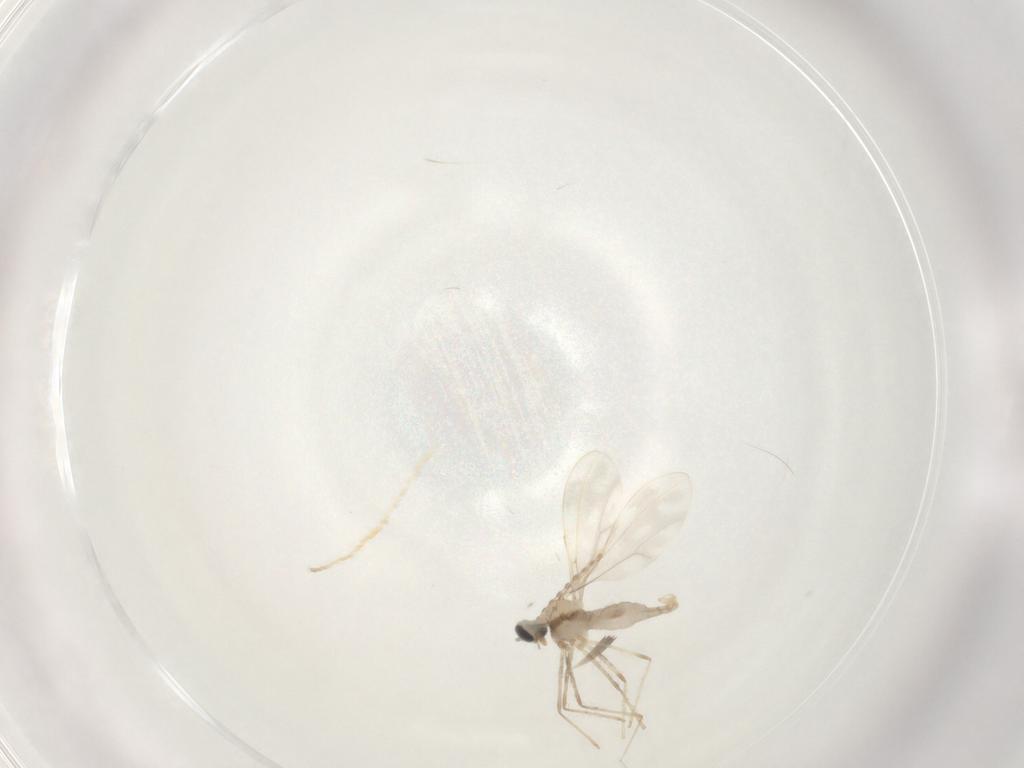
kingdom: Animalia
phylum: Arthropoda
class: Insecta
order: Diptera
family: Cecidomyiidae
